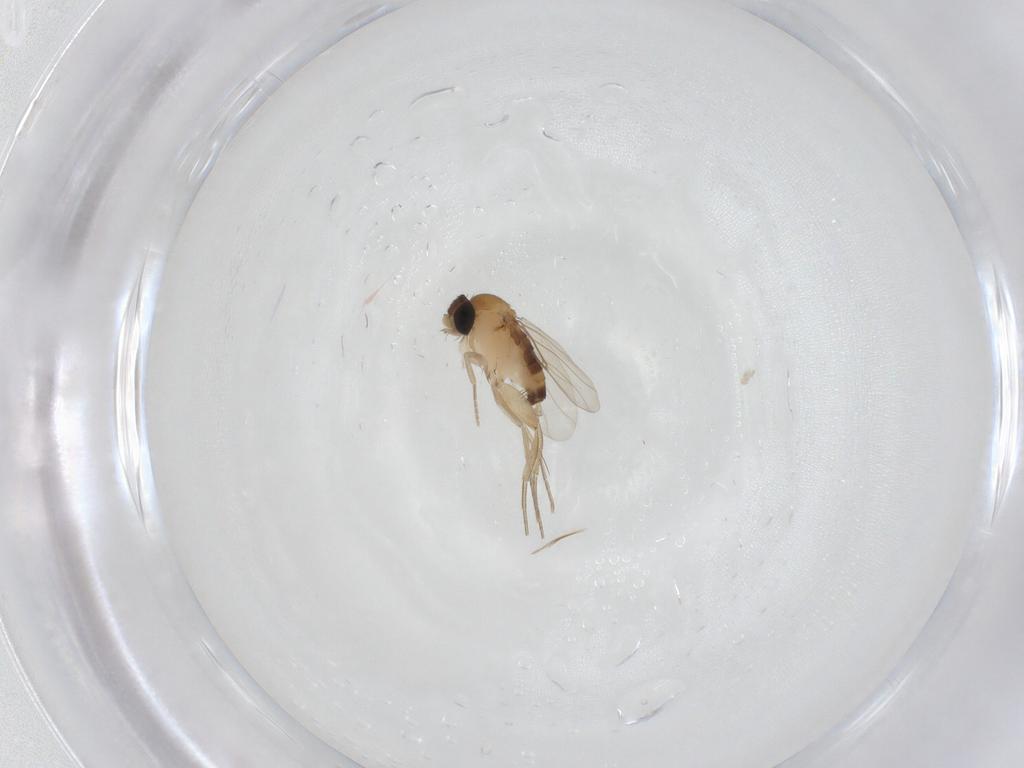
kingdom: Animalia
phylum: Arthropoda
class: Insecta
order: Diptera
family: Phoridae
